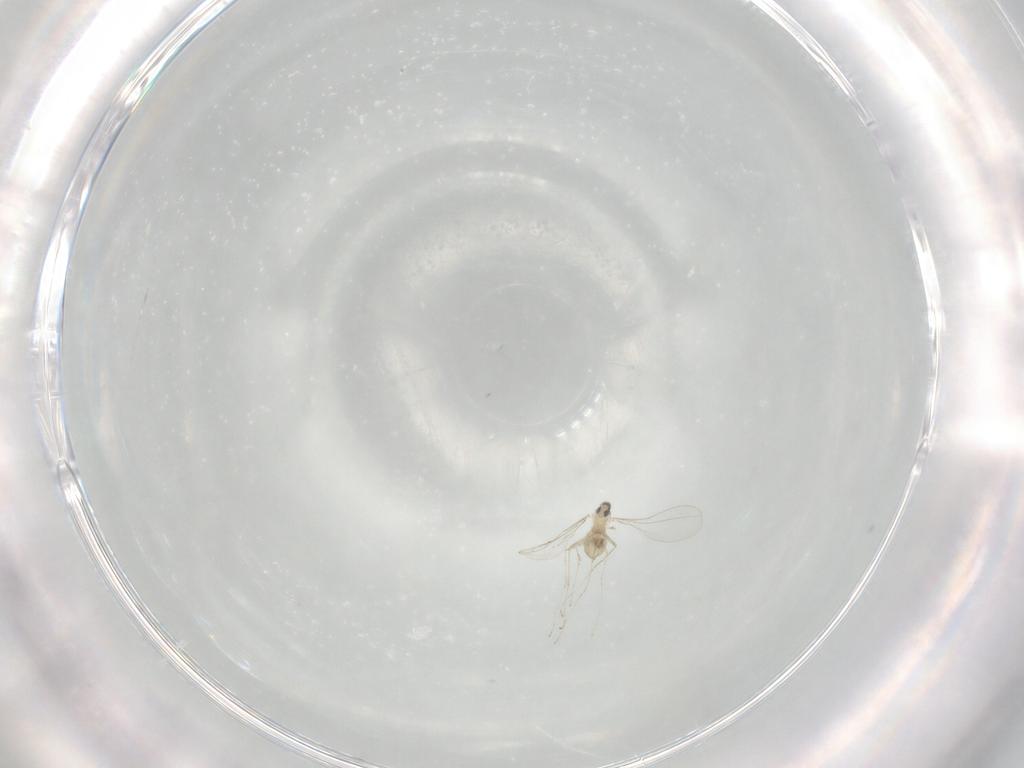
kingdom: Animalia
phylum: Arthropoda
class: Insecta
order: Diptera
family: Cecidomyiidae
